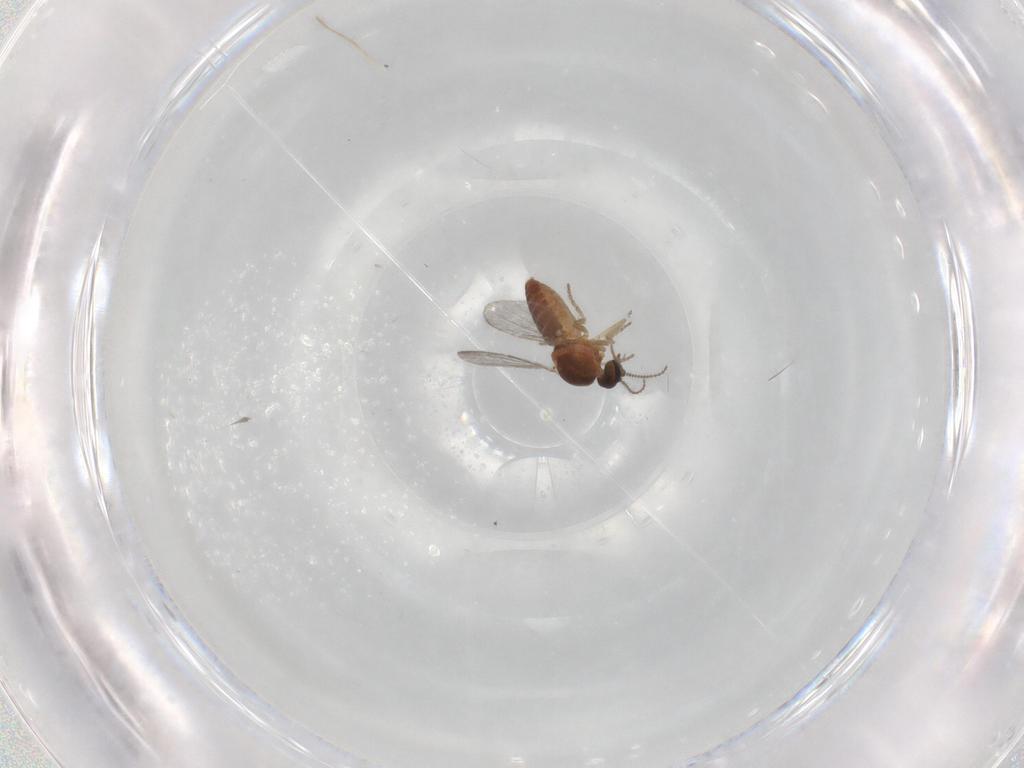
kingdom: Animalia
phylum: Arthropoda
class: Insecta
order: Diptera
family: Ceratopogonidae
